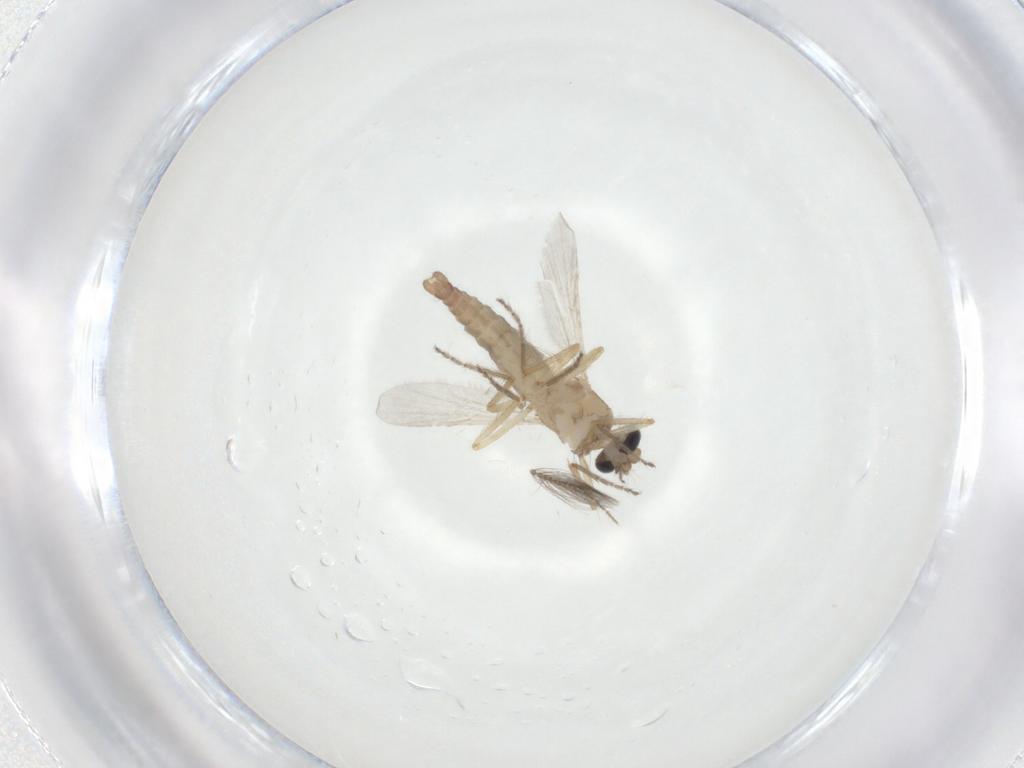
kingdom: Animalia
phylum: Arthropoda
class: Insecta
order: Diptera
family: Ceratopogonidae
